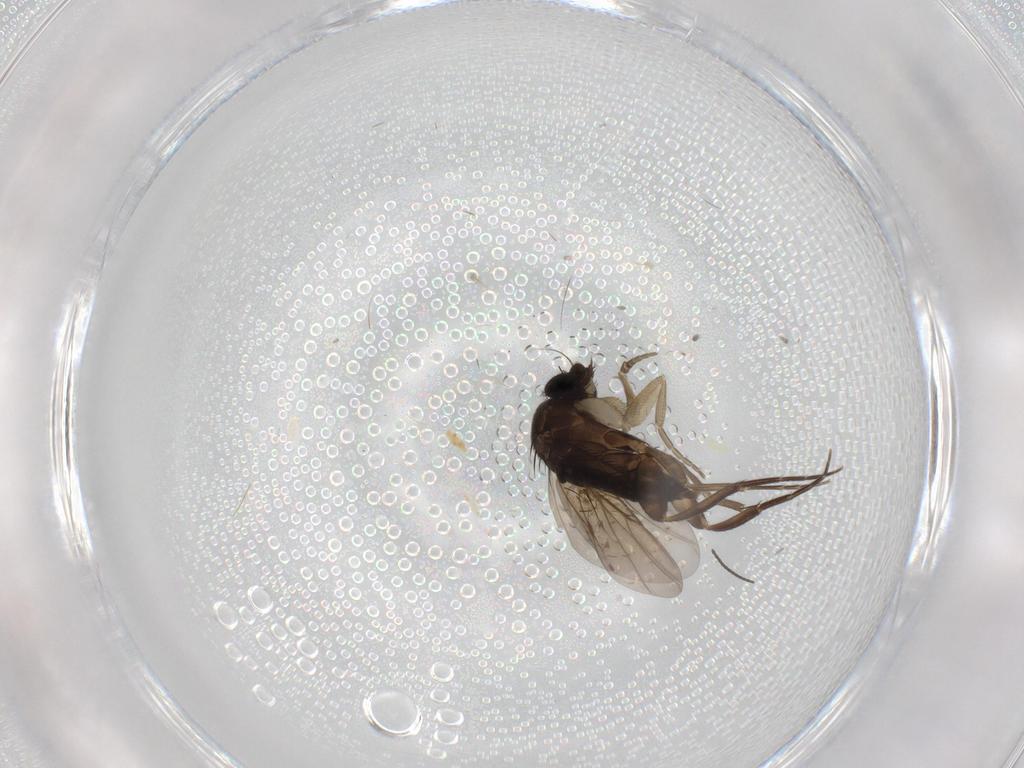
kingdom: Animalia
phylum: Arthropoda
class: Insecta
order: Diptera
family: Phoridae
